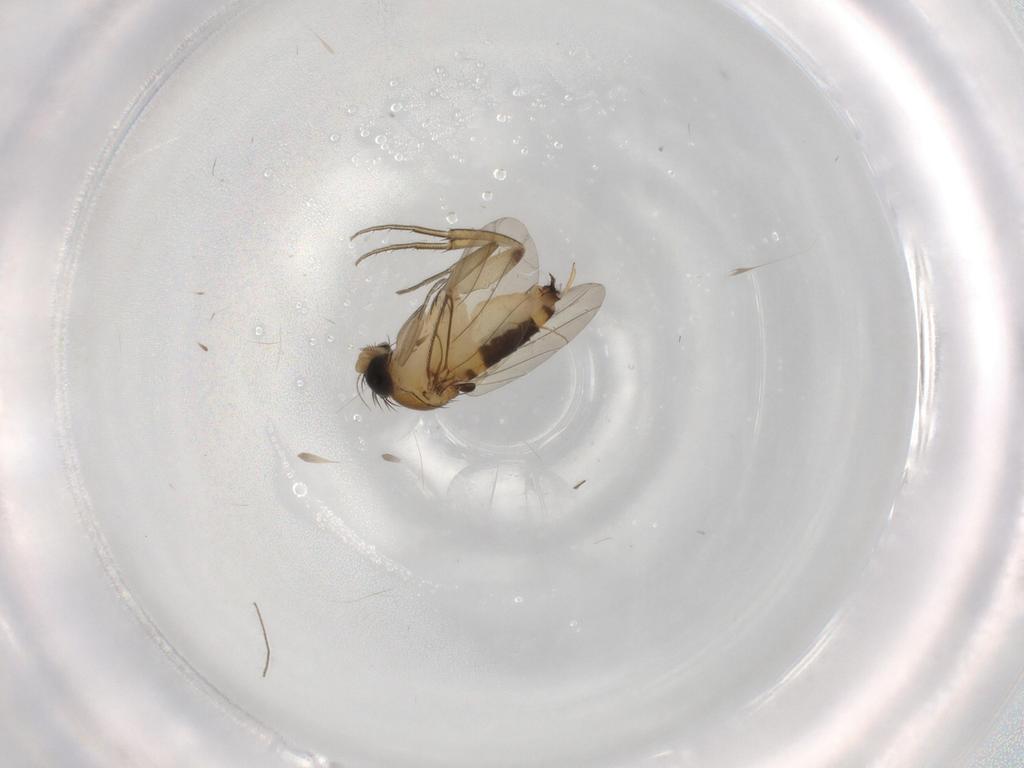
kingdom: Animalia
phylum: Arthropoda
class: Insecta
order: Diptera
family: Phoridae
